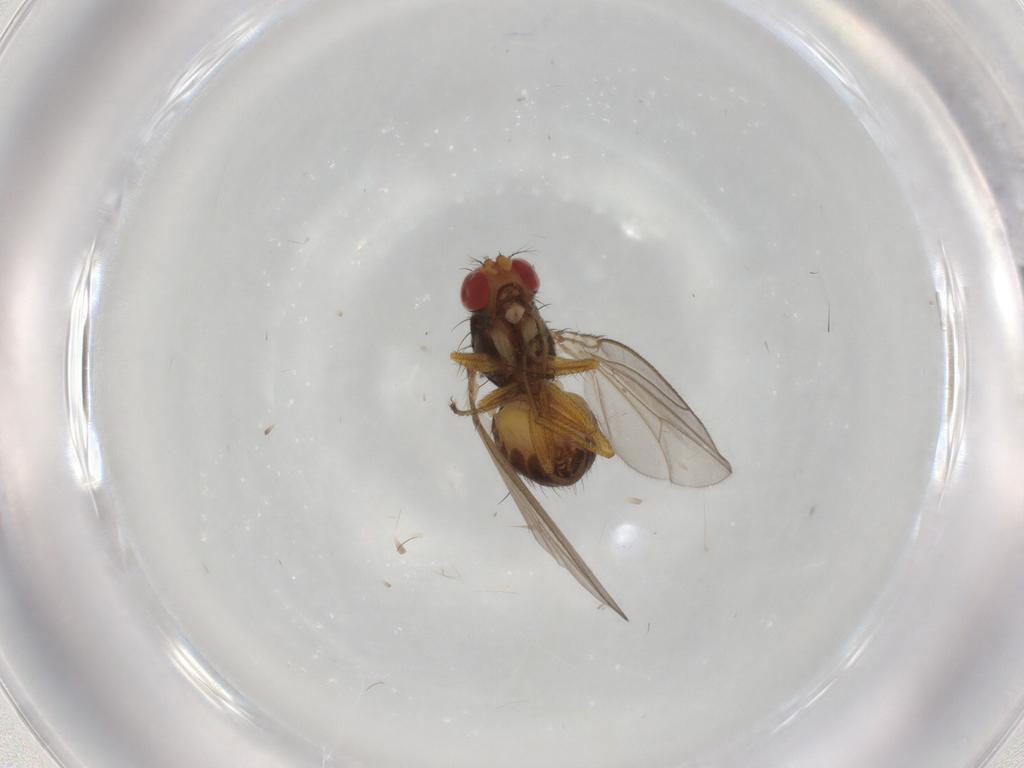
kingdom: Animalia
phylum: Arthropoda
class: Insecta
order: Diptera
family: Drosophilidae
